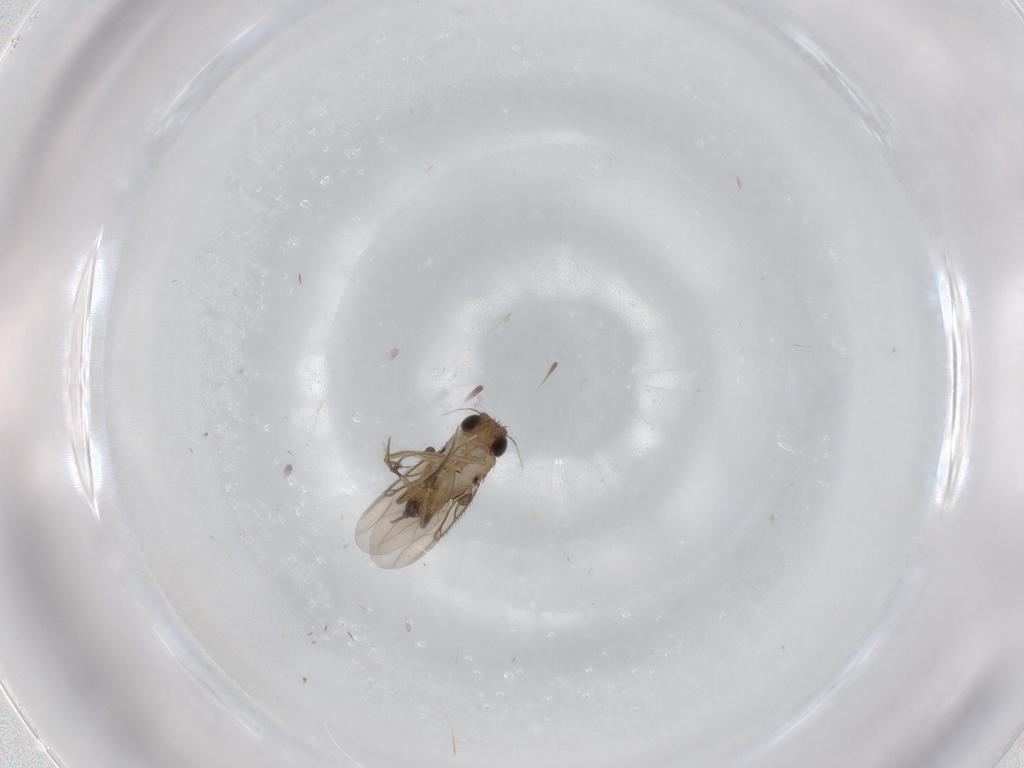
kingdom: Animalia
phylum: Arthropoda
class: Insecta
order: Diptera
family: Phoridae
